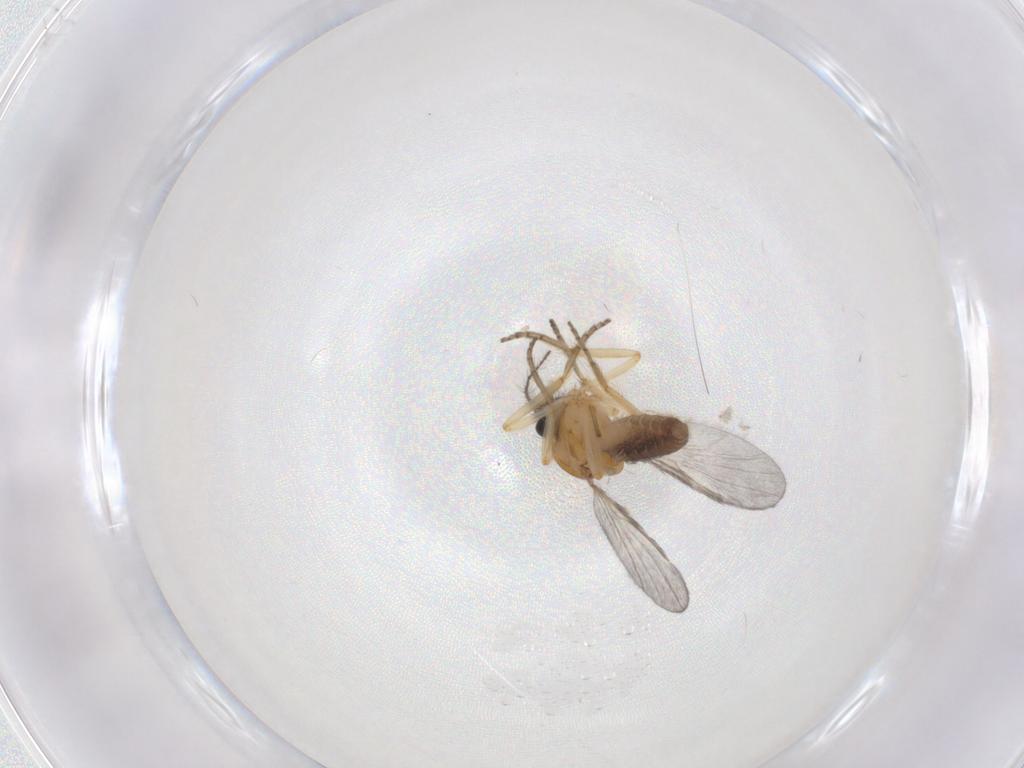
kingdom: Animalia
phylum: Arthropoda
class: Insecta
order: Diptera
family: Ceratopogonidae
